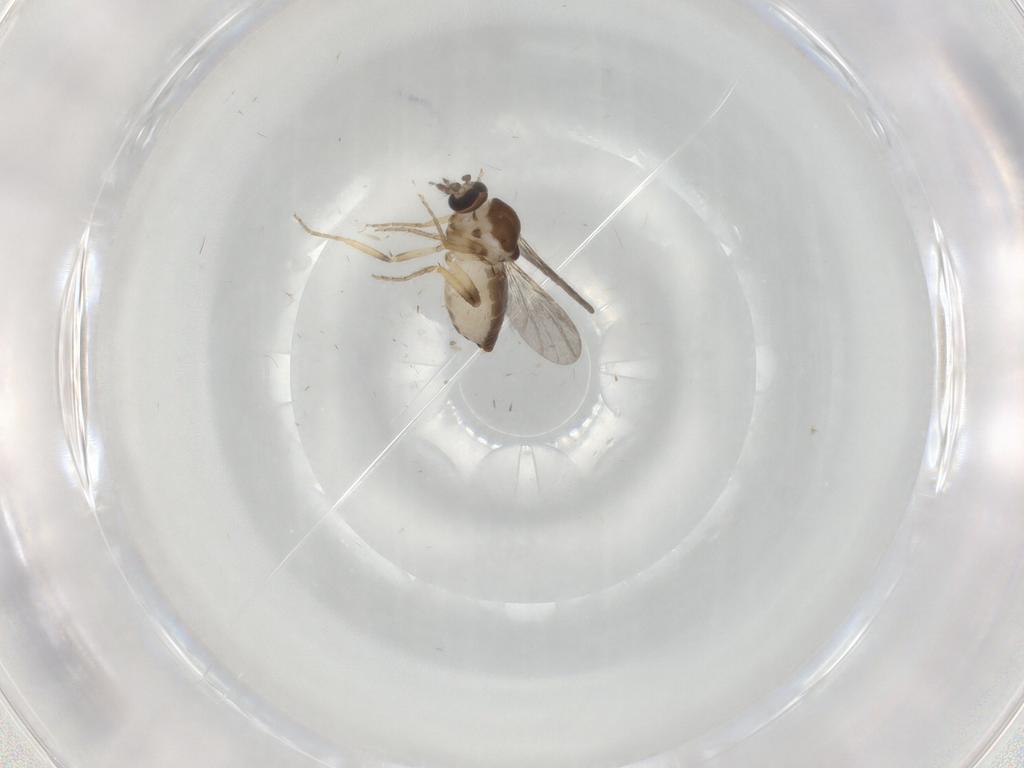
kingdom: Animalia
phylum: Arthropoda
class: Insecta
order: Diptera
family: Ceratopogonidae
